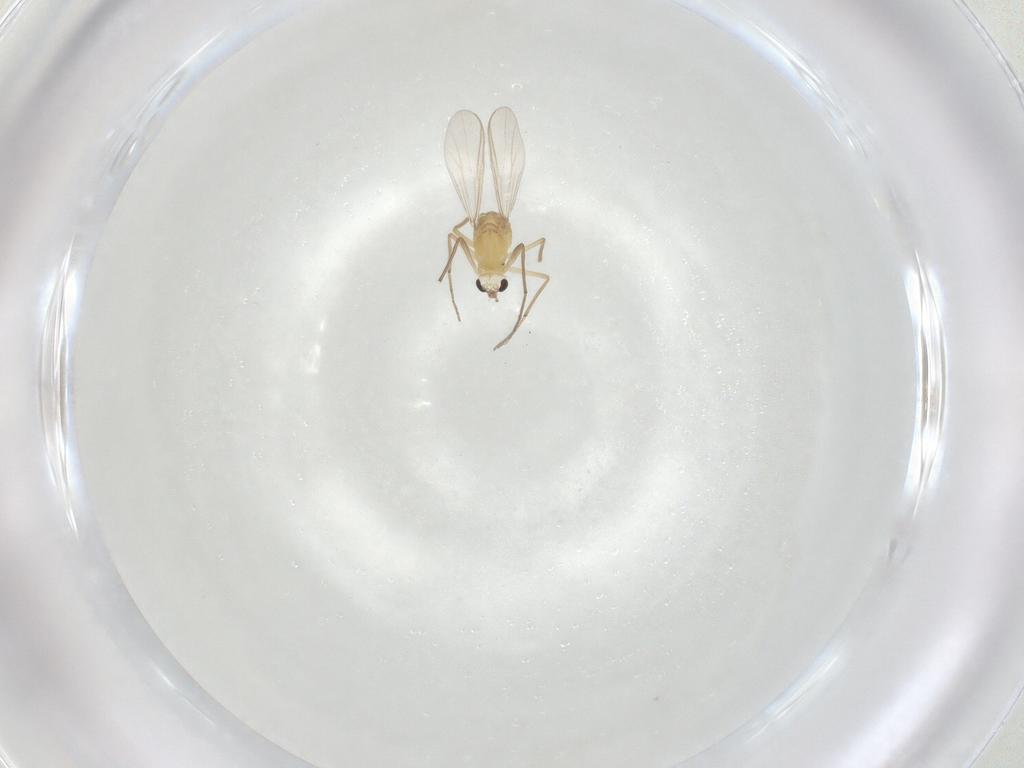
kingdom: Animalia
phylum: Arthropoda
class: Insecta
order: Diptera
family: Chironomidae
